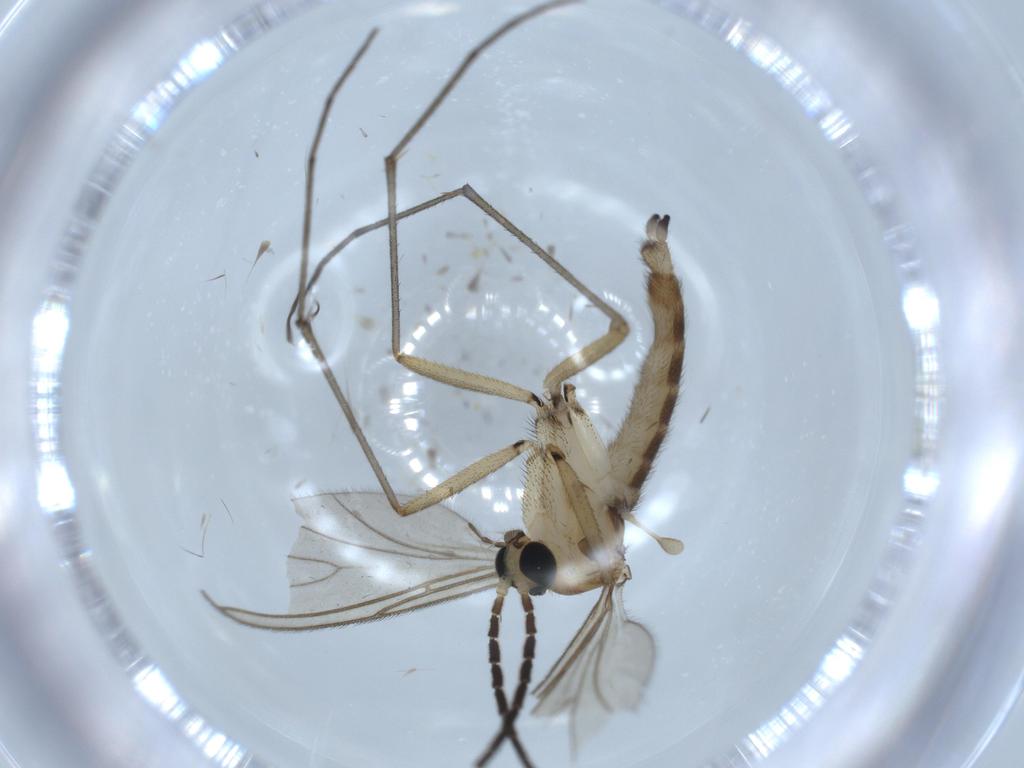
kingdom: Animalia
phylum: Arthropoda
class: Insecta
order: Diptera
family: Sciaridae
